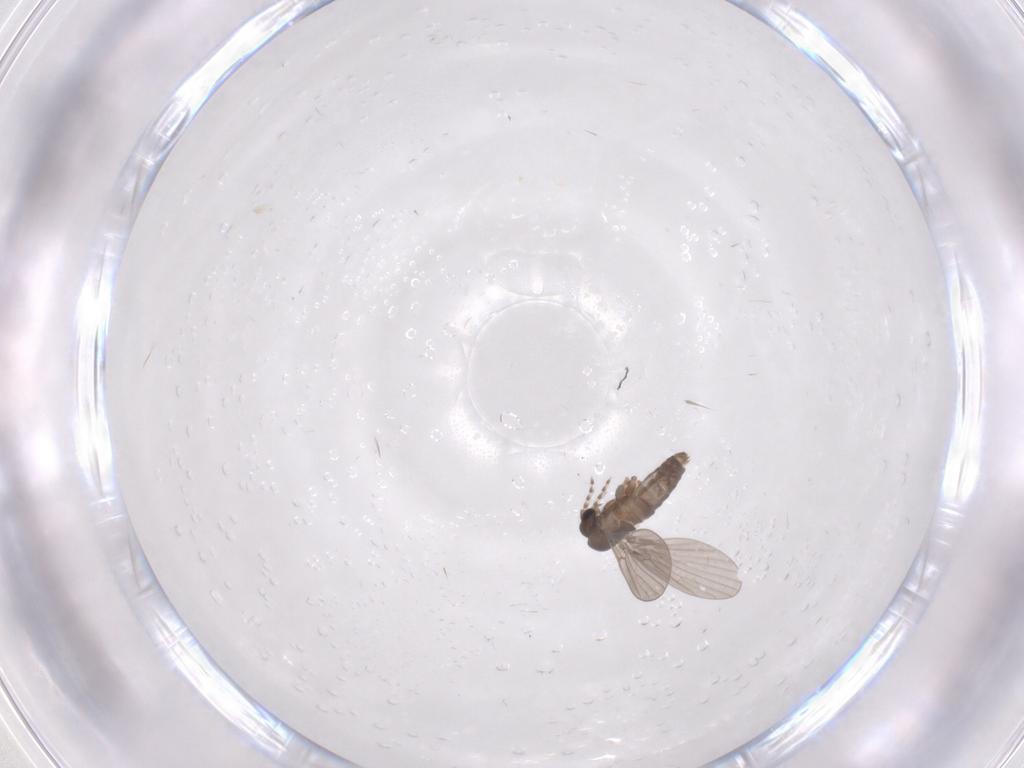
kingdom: Animalia
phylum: Arthropoda
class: Insecta
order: Diptera
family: Psychodidae
